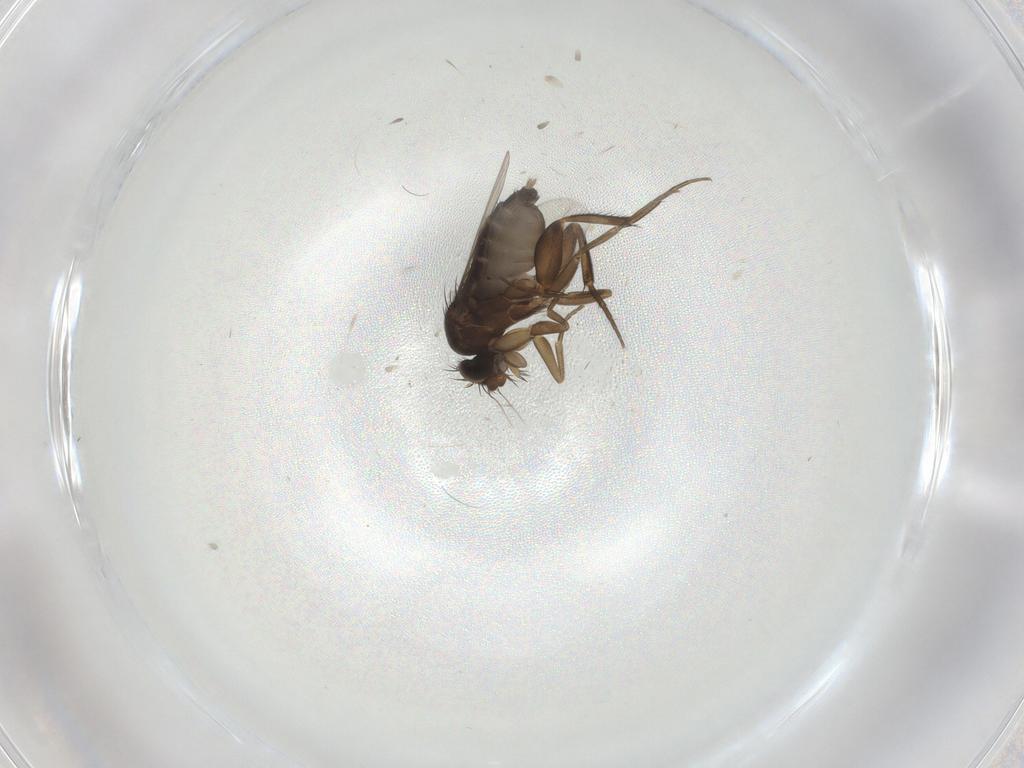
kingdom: Animalia
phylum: Arthropoda
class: Insecta
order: Diptera
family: Phoridae
